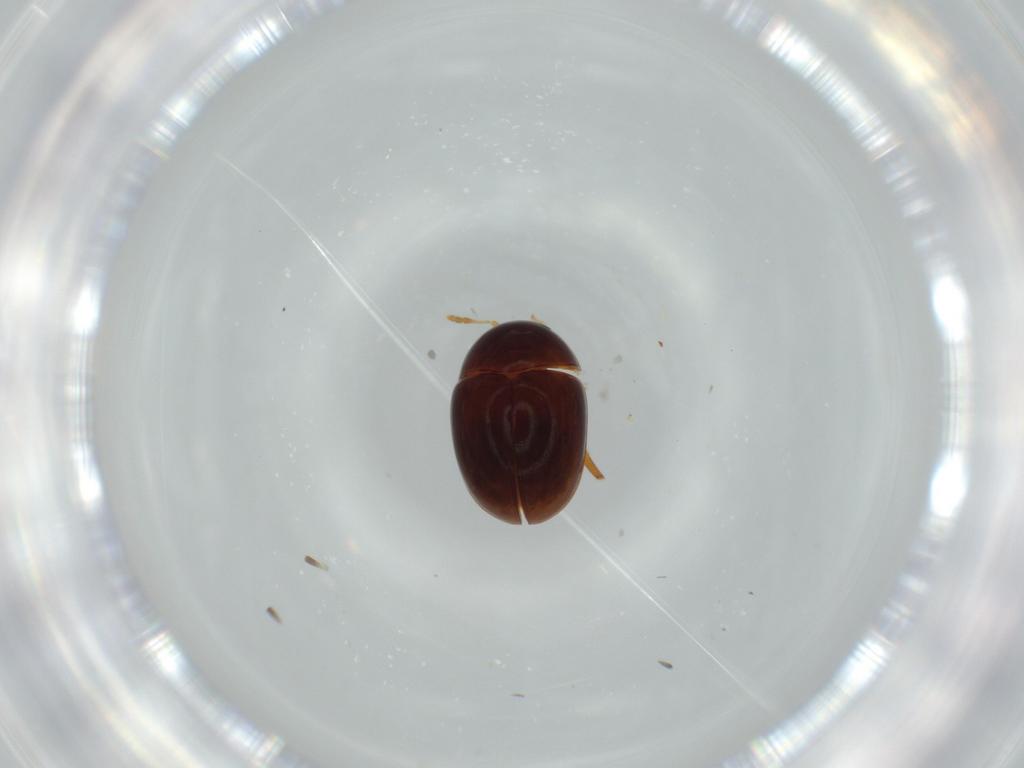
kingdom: Animalia
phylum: Arthropoda
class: Insecta
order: Coleoptera
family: Phalacridae
